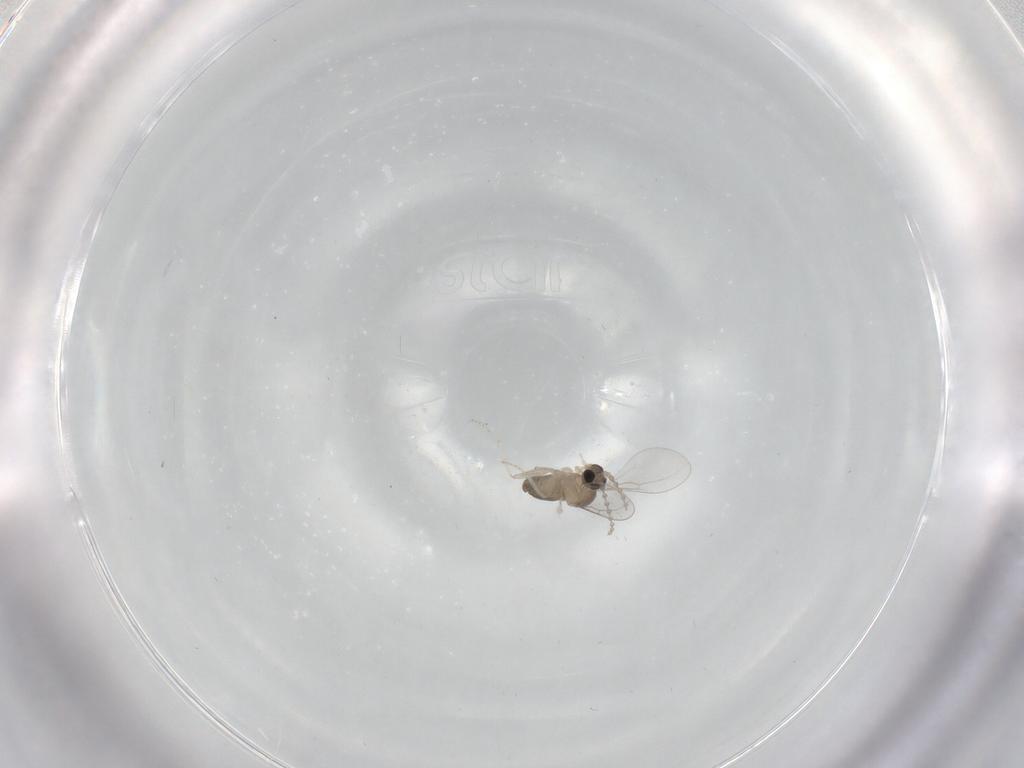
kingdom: Animalia
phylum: Arthropoda
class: Insecta
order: Diptera
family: Cecidomyiidae
